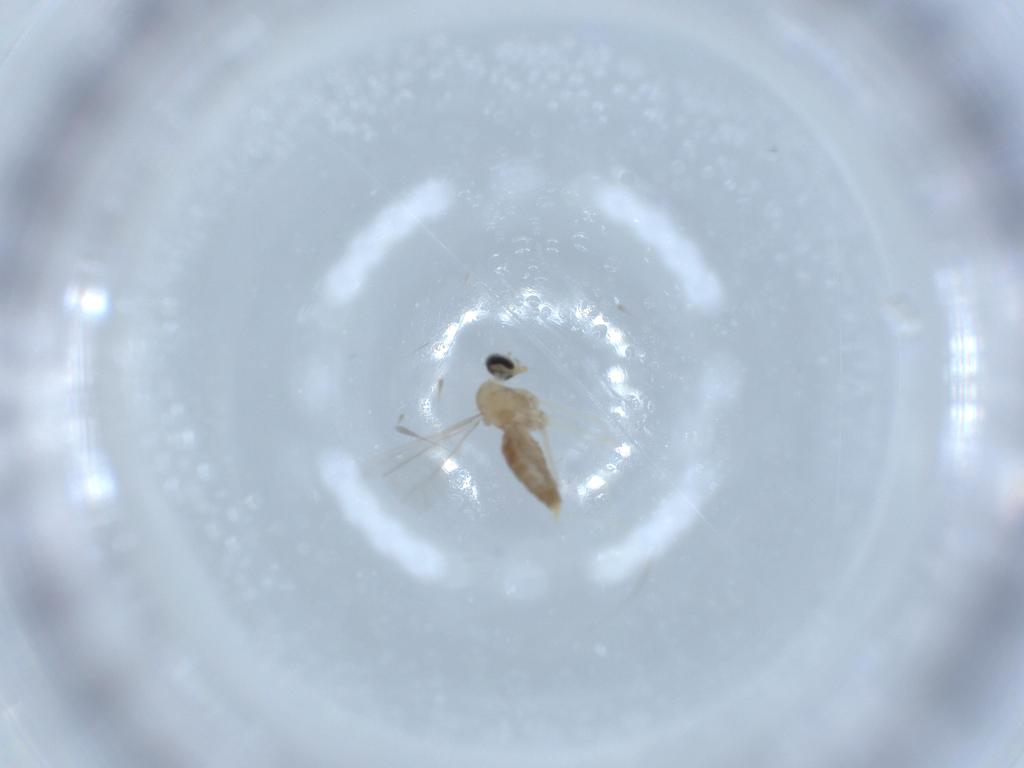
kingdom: Animalia
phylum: Arthropoda
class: Insecta
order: Diptera
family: Cecidomyiidae
